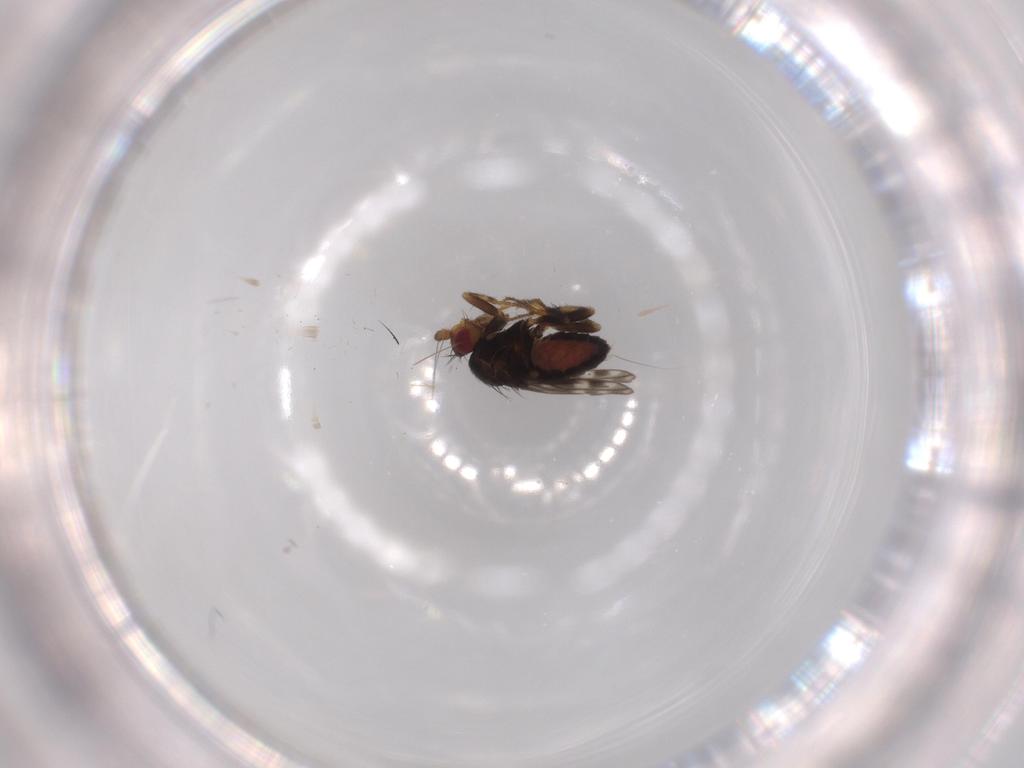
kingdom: Animalia
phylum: Arthropoda
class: Insecta
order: Diptera
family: Sphaeroceridae
